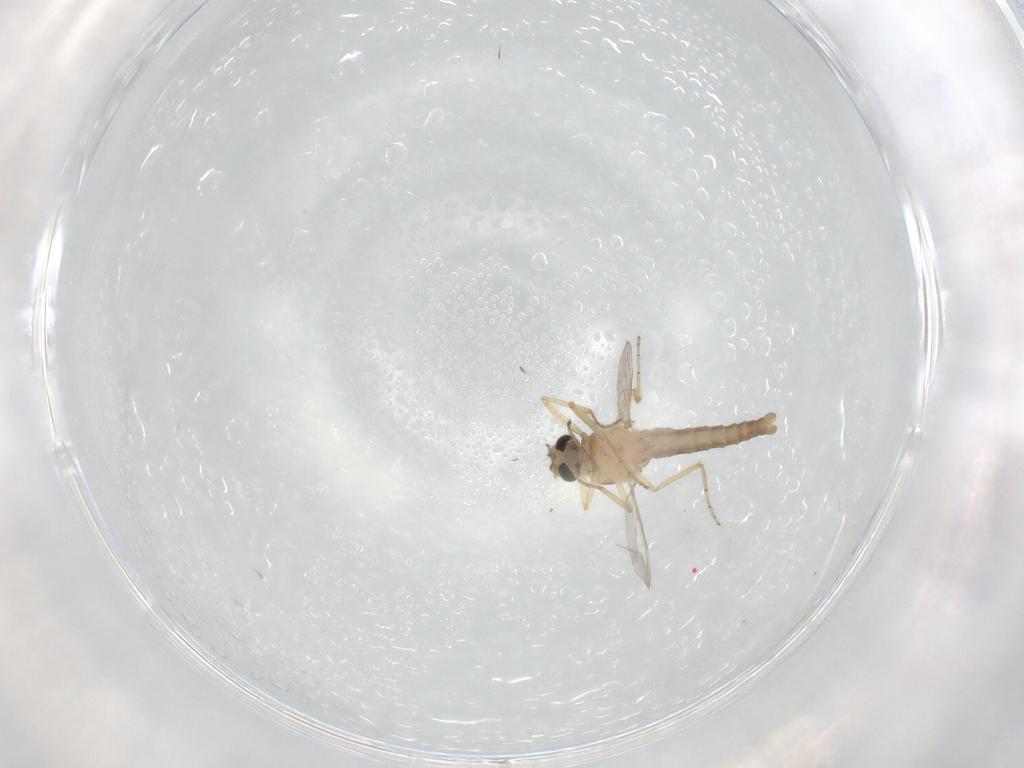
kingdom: Animalia
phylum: Arthropoda
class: Insecta
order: Diptera
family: Ceratopogonidae
